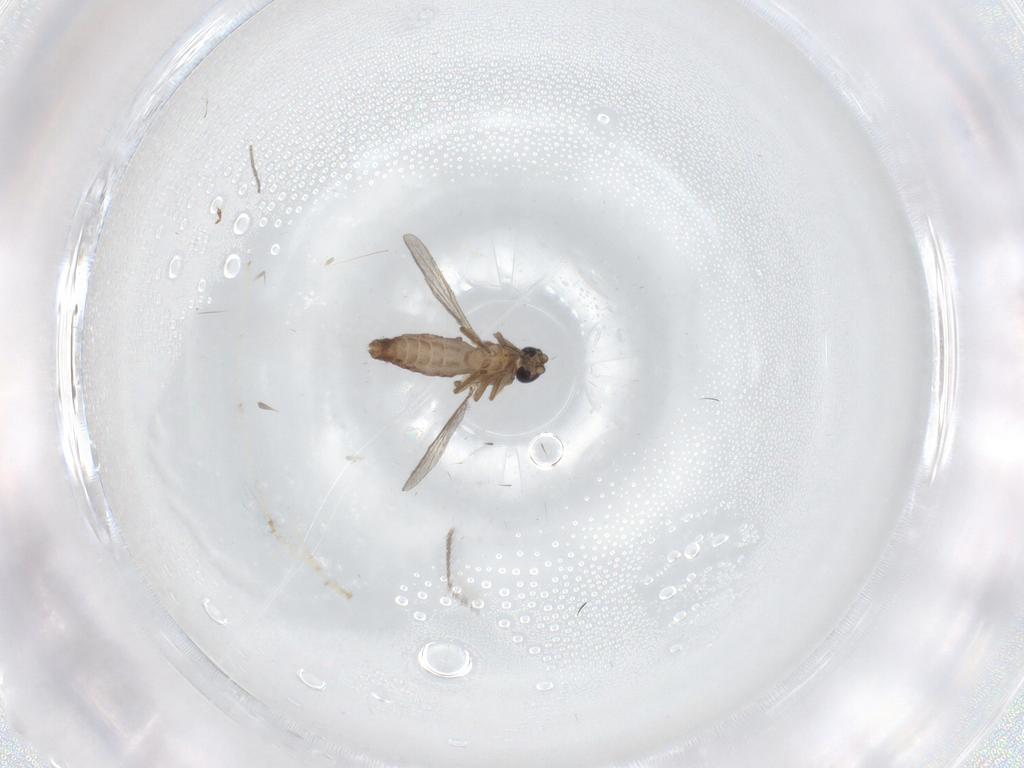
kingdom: Animalia
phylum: Arthropoda
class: Insecta
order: Diptera
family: Ceratopogonidae
